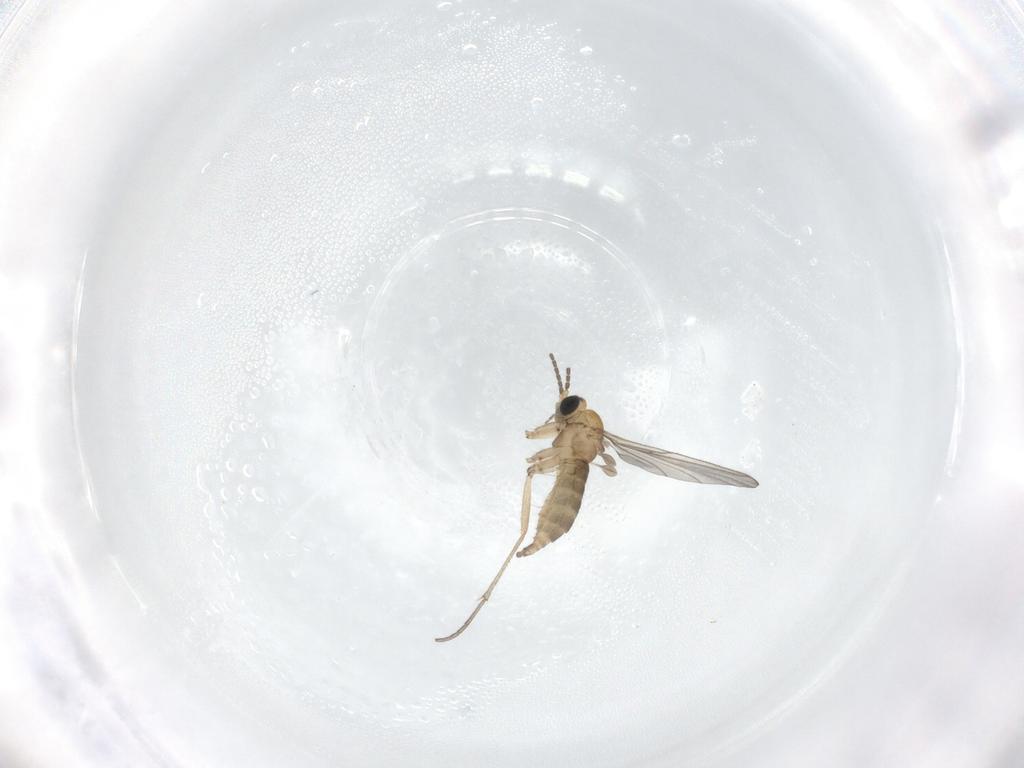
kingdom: Animalia
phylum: Arthropoda
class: Insecta
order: Diptera
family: Sciaridae
